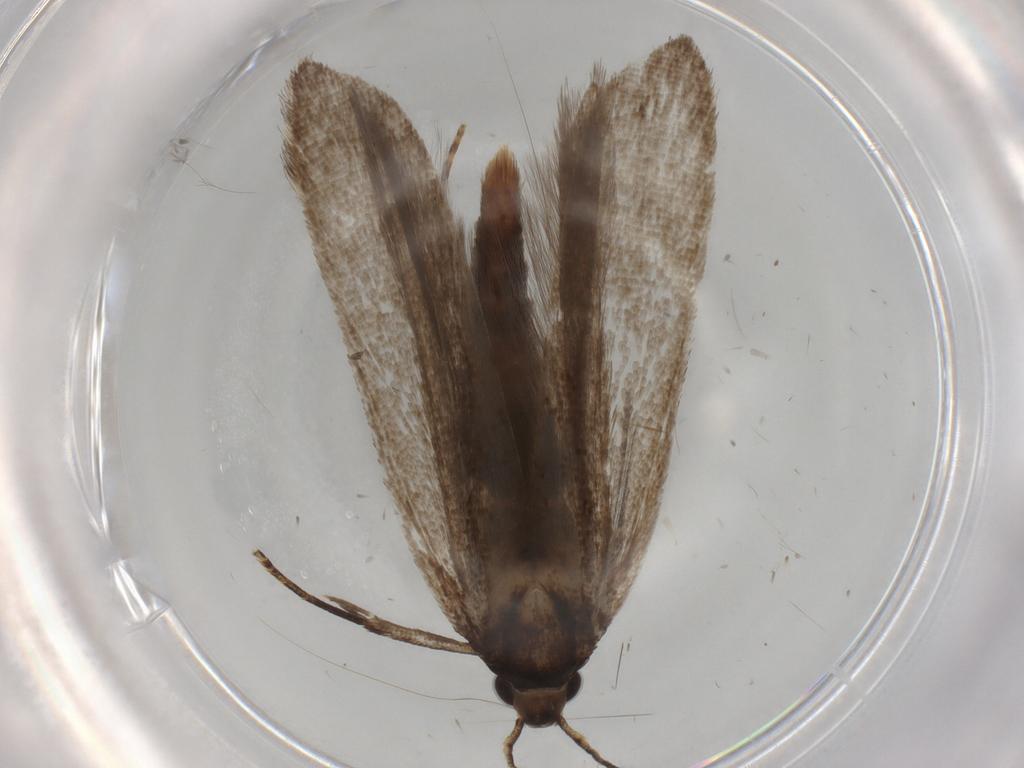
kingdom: Animalia
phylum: Arthropoda
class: Insecta
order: Lepidoptera
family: Gelechiidae
